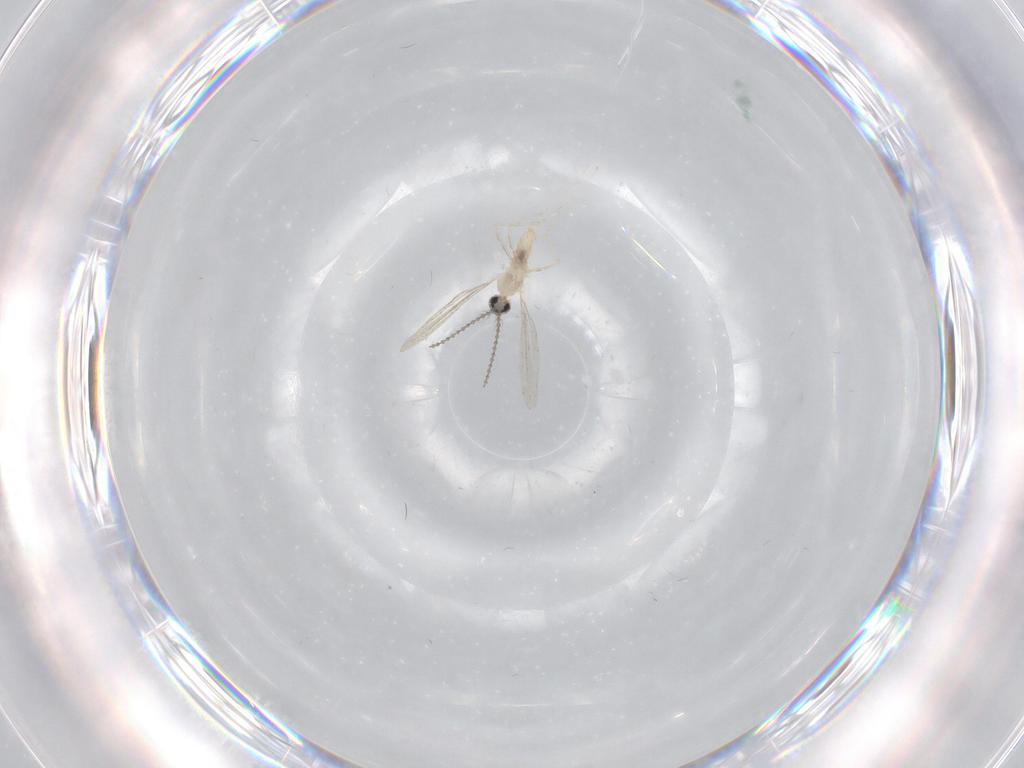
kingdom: Animalia
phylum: Arthropoda
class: Insecta
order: Diptera
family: Cecidomyiidae
